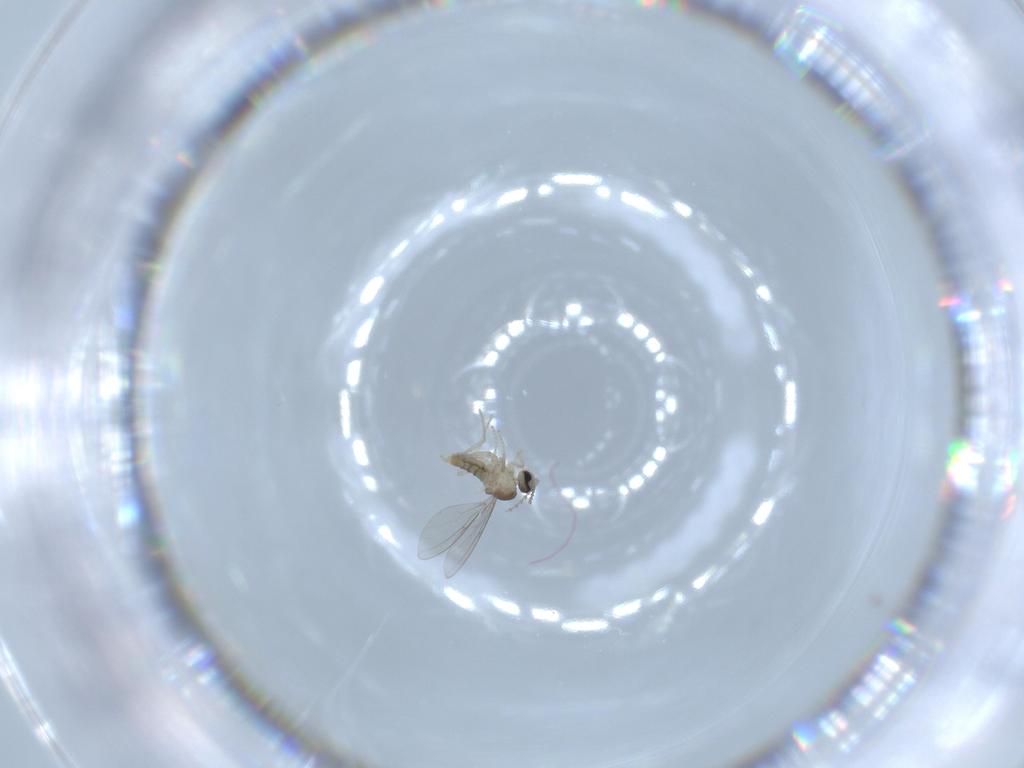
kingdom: Animalia
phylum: Arthropoda
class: Insecta
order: Diptera
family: Cecidomyiidae
